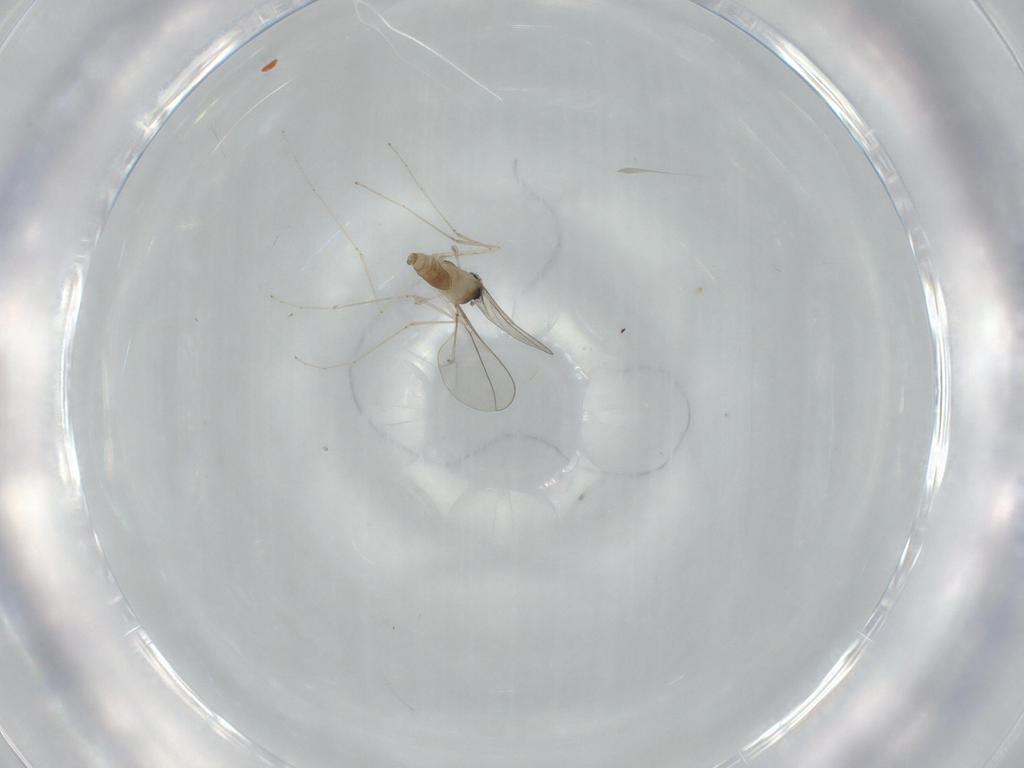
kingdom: Animalia
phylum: Arthropoda
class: Insecta
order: Diptera
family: Cecidomyiidae
